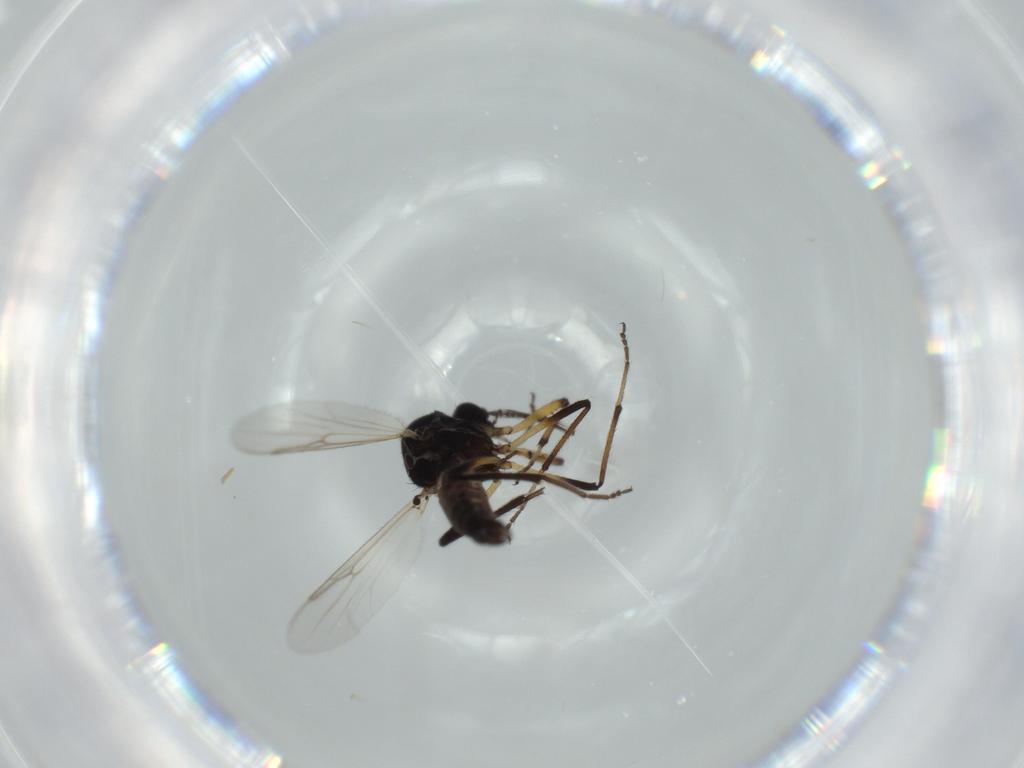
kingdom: Animalia
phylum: Arthropoda
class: Insecta
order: Diptera
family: Chironomidae
